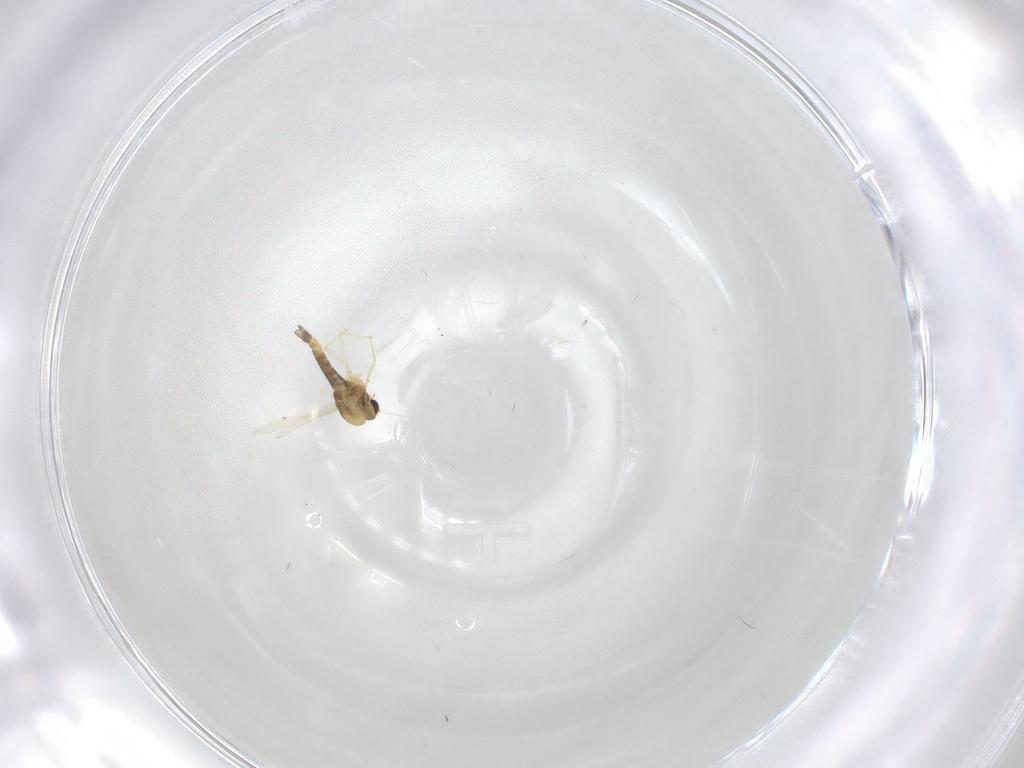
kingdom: Animalia
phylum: Arthropoda
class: Insecta
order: Diptera
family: Chironomidae
